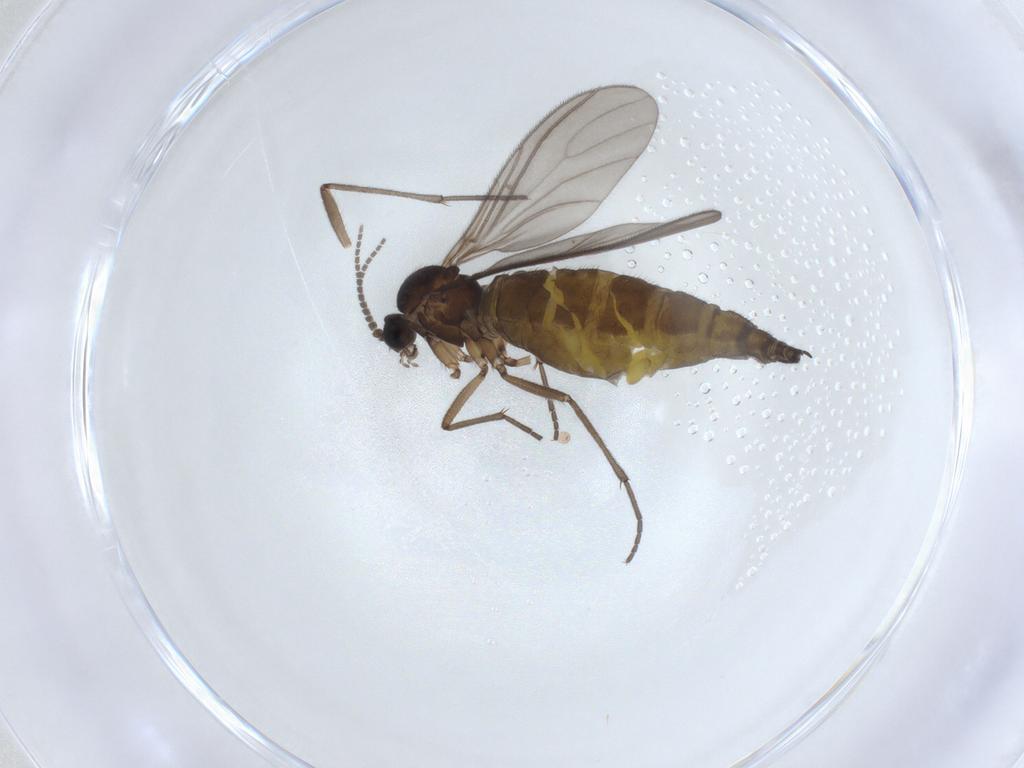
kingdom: Animalia
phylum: Arthropoda
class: Insecta
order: Diptera
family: Sciaridae
